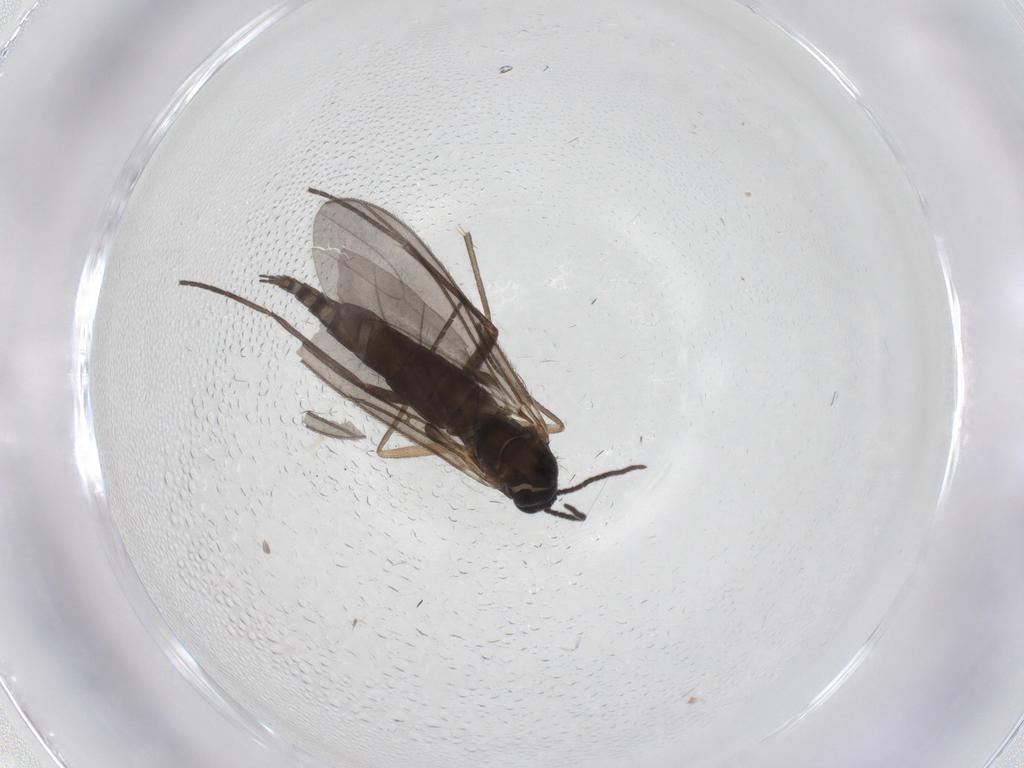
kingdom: Animalia
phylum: Arthropoda
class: Insecta
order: Diptera
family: Sciaridae
